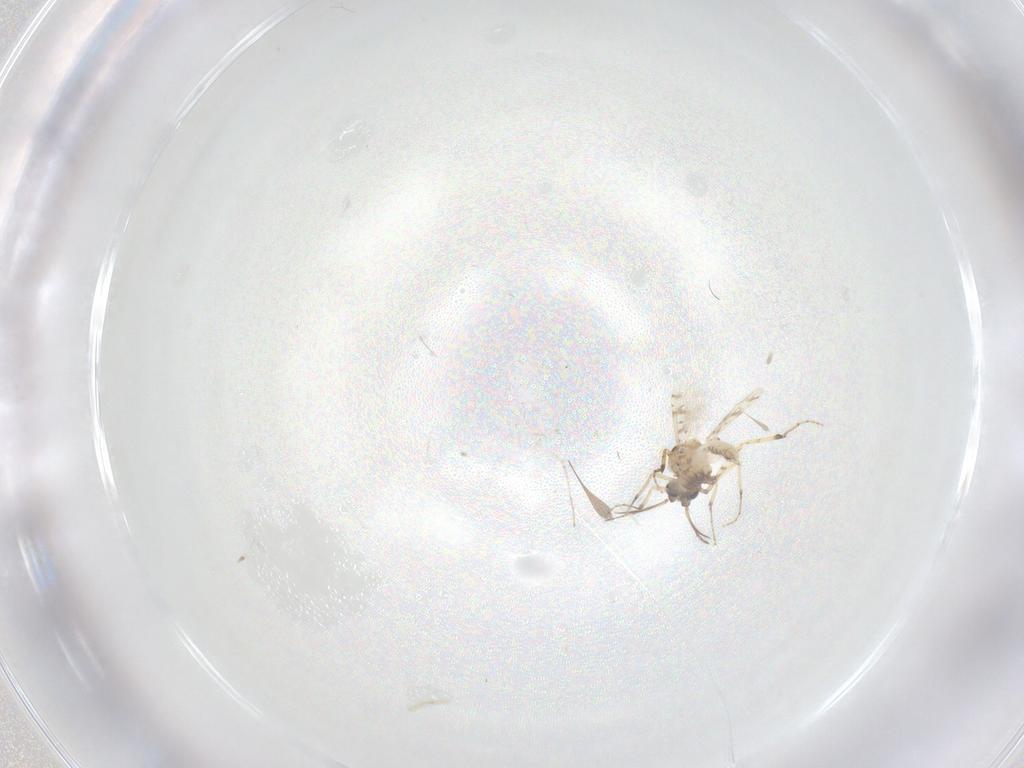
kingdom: Animalia
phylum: Arthropoda
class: Insecta
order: Diptera
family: Ceratopogonidae
